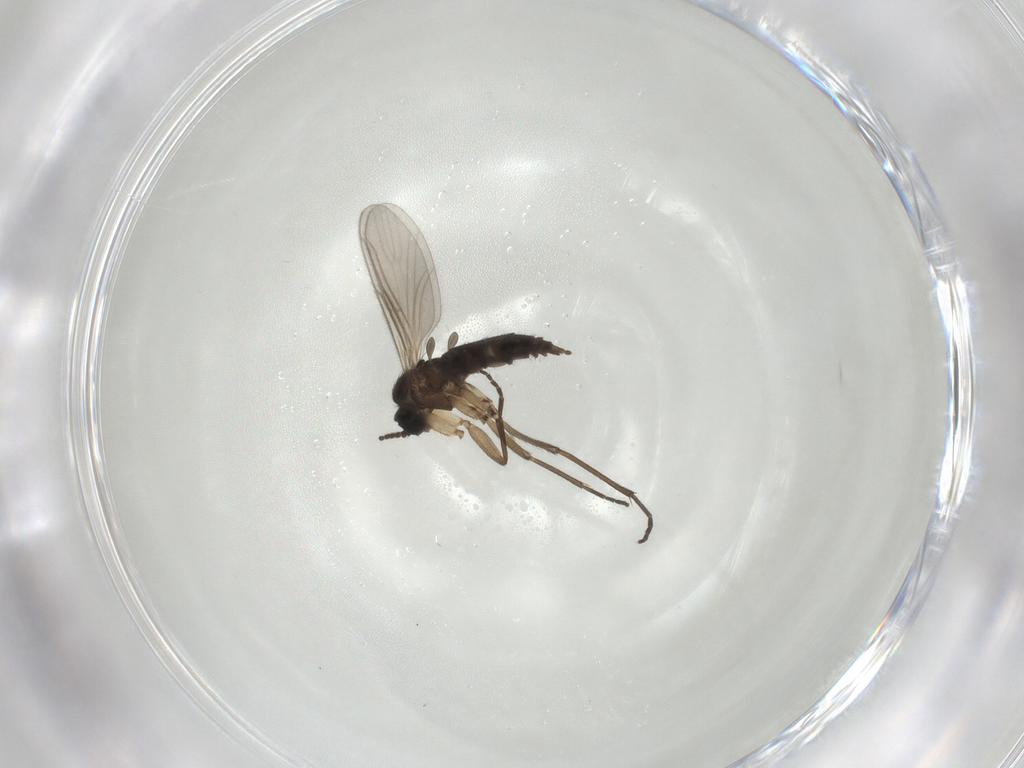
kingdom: Animalia
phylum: Arthropoda
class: Insecta
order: Diptera
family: Sciaridae
